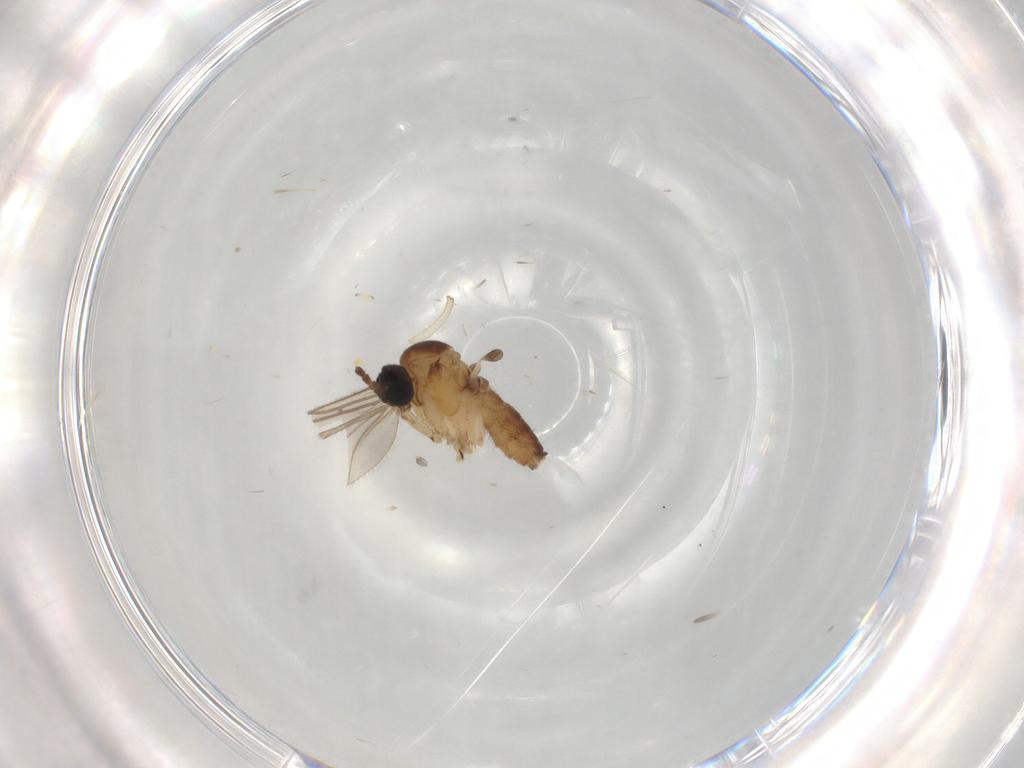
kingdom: Animalia
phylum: Arthropoda
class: Insecta
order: Diptera
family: Sciaridae
